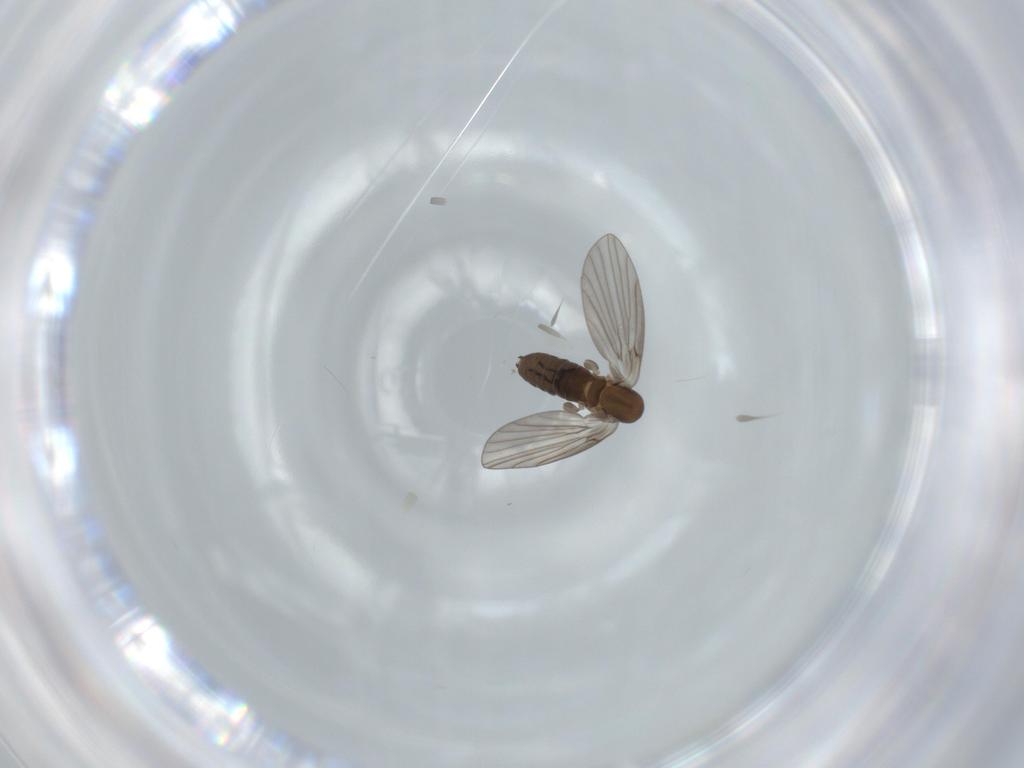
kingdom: Animalia
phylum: Arthropoda
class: Insecta
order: Diptera
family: Psychodidae
